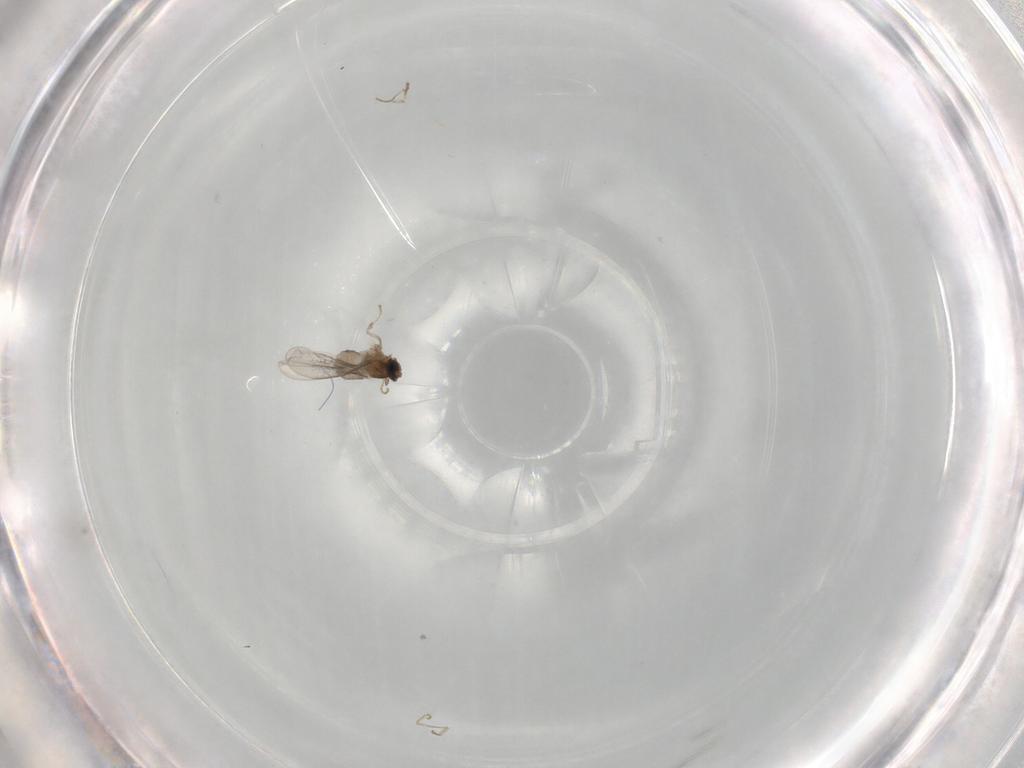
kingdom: Animalia
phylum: Arthropoda
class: Insecta
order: Diptera
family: Cecidomyiidae
